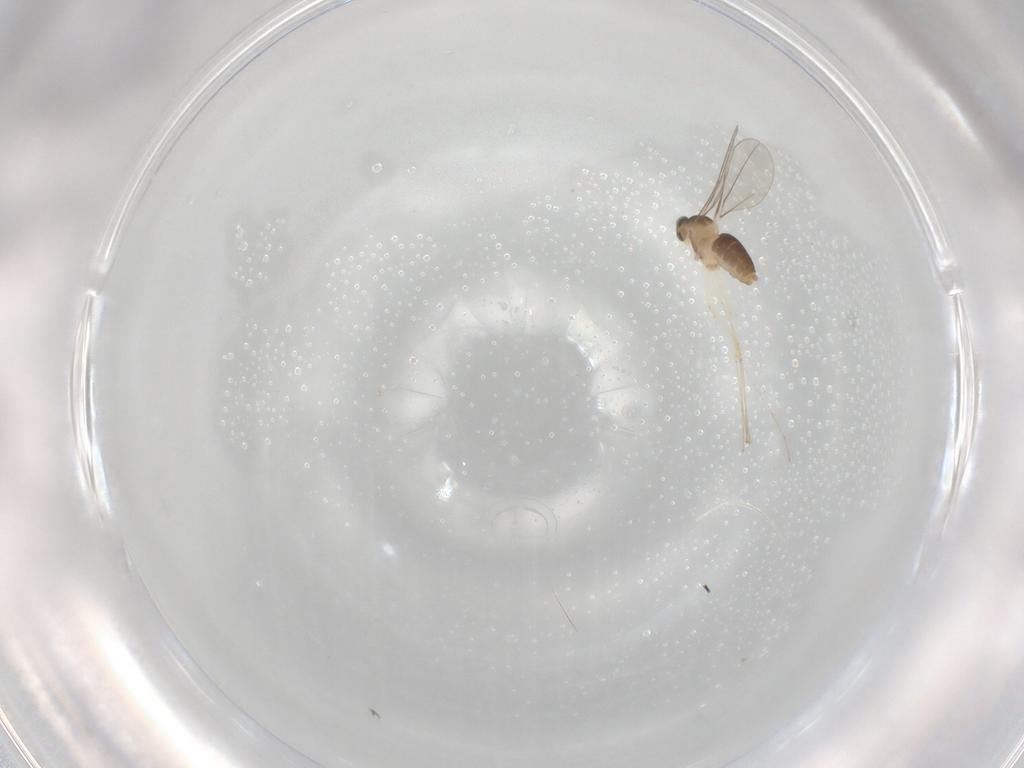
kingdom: Animalia
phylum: Arthropoda
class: Insecta
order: Diptera
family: Cecidomyiidae
